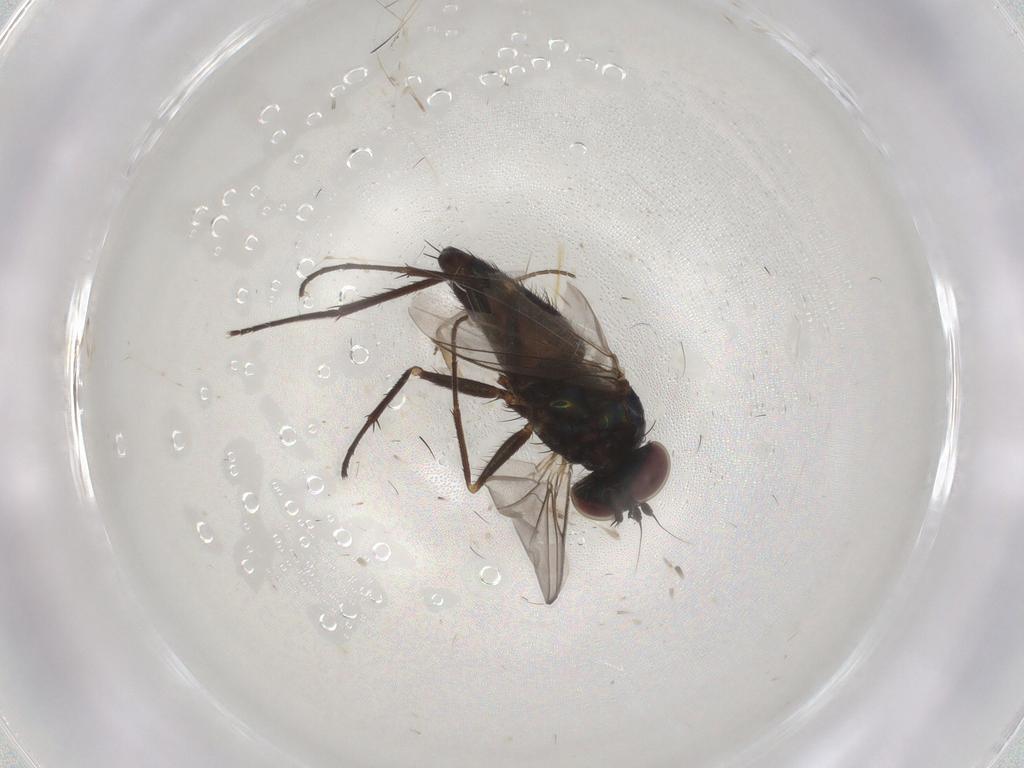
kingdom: Animalia
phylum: Arthropoda
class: Insecta
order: Diptera
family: Dolichopodidae
